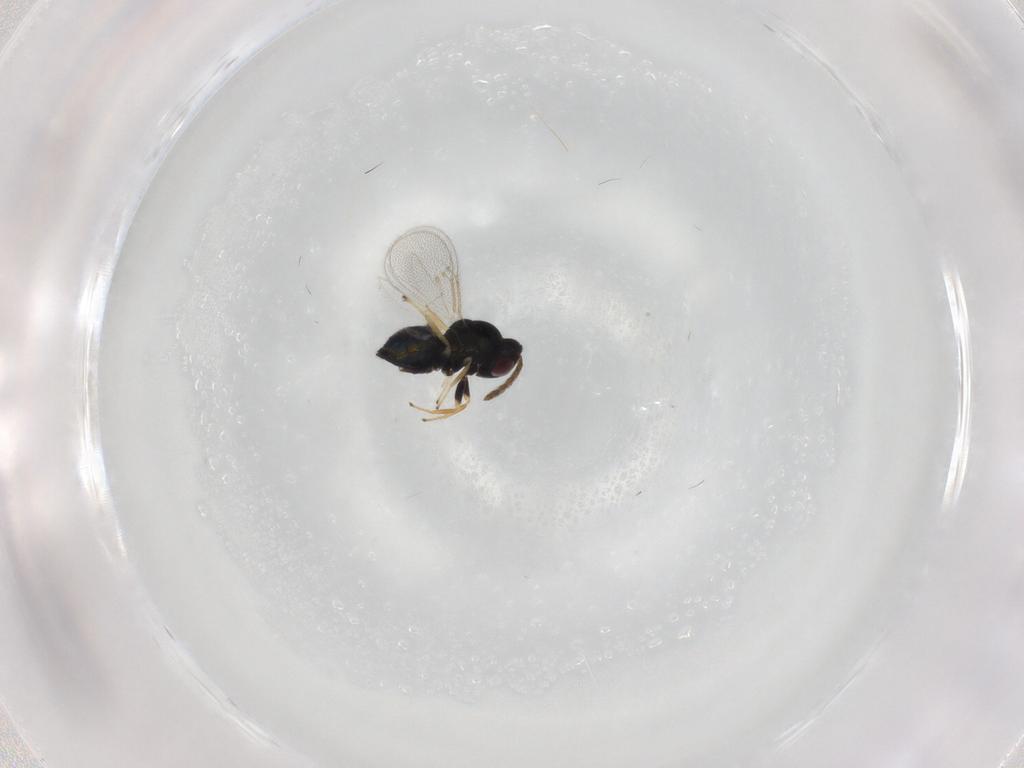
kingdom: Animalia
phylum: Arthropoda
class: Insecta
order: Hymenoptera
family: Eulophidae
